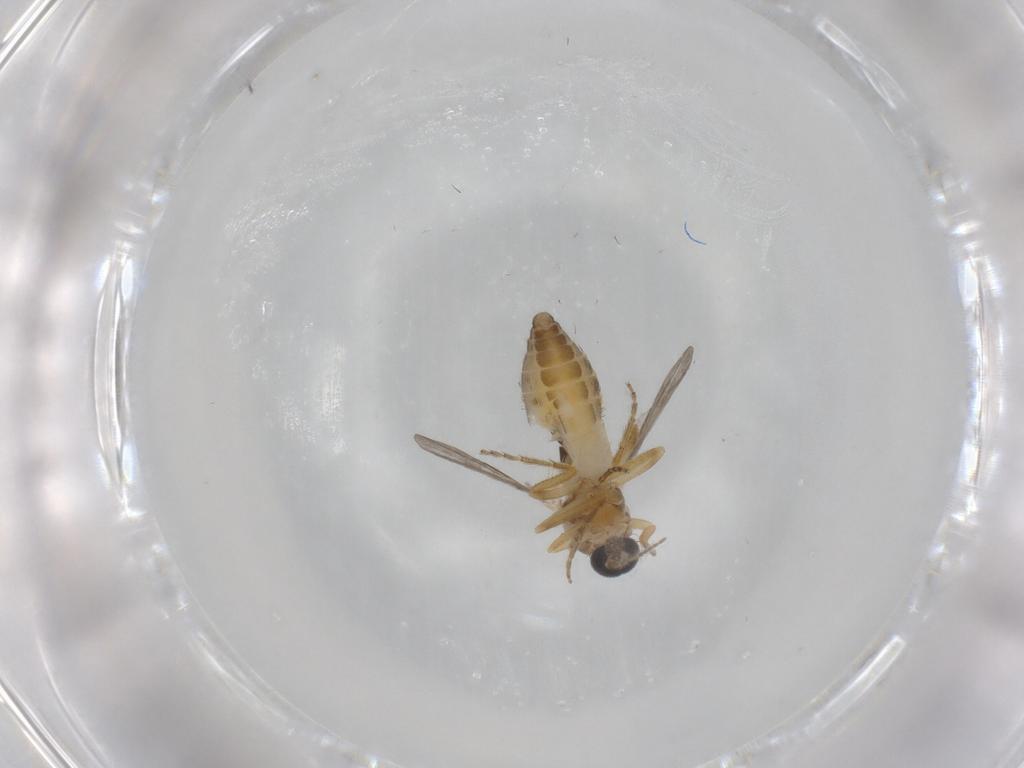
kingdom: Animalia
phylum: Arthropoda
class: Insecta
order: Diptera
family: Ceratopogonidae
